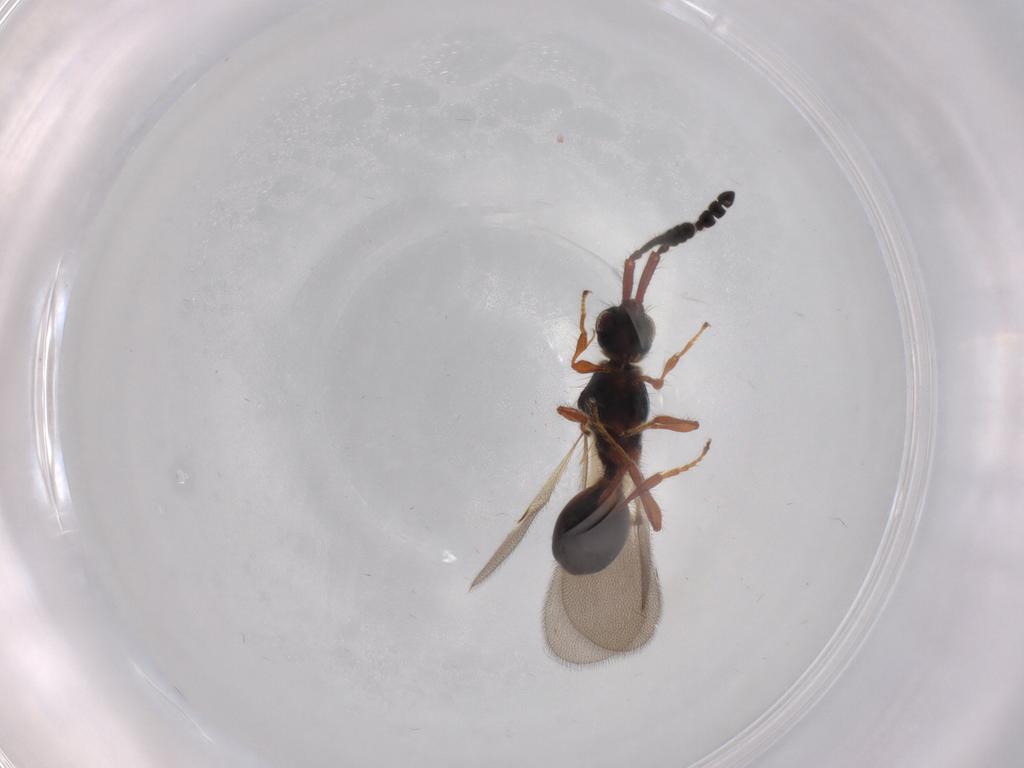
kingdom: Animalia
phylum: Arthropoda
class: Insecta
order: Hymenoptera
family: Diapriidae
